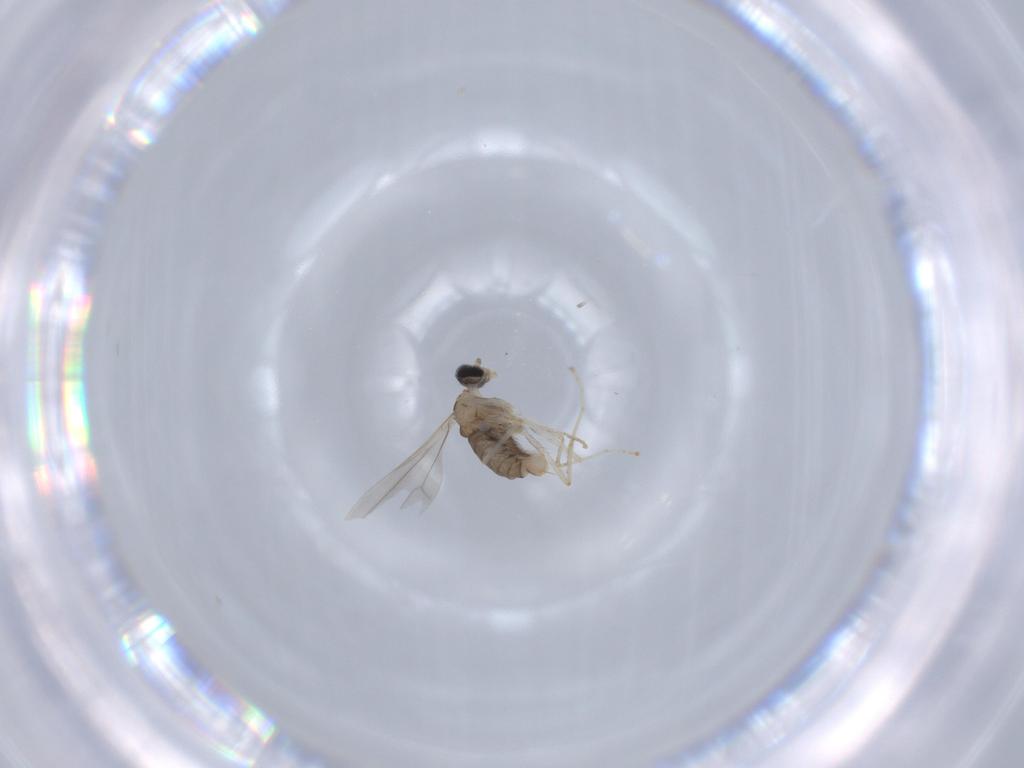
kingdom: Animalia
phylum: Arthropoda
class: Insecta
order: Diptera
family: Cecidomyiidae
